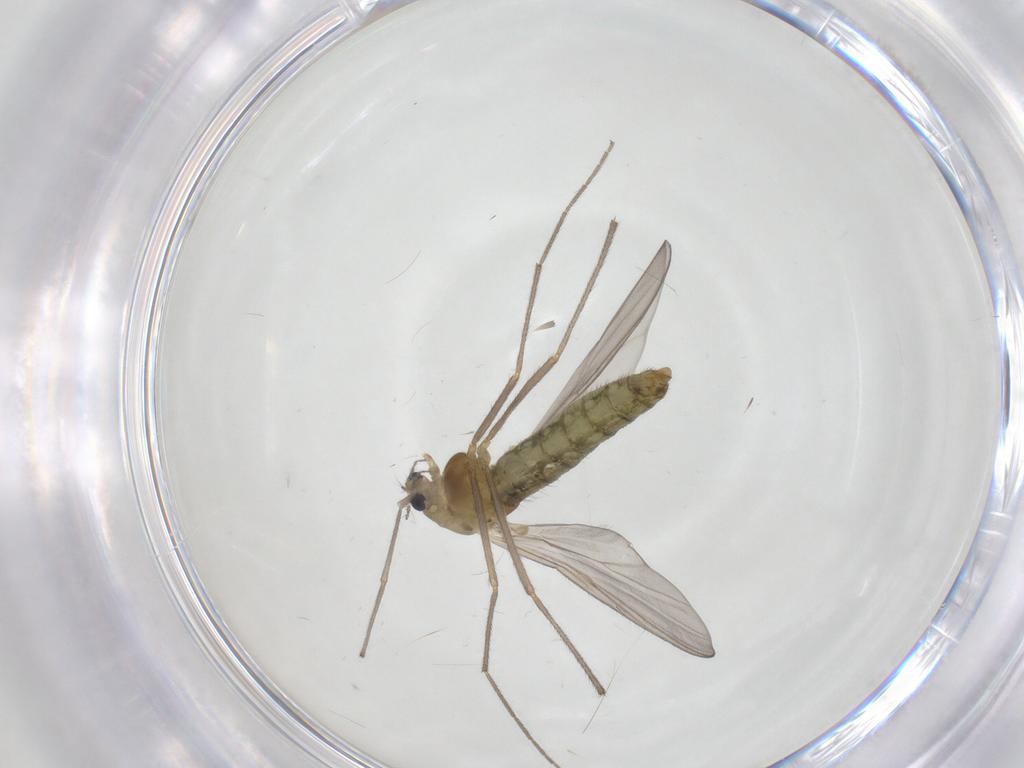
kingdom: Animalia
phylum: Arthropoda
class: Insecta
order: Diptera
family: Chironomidae
